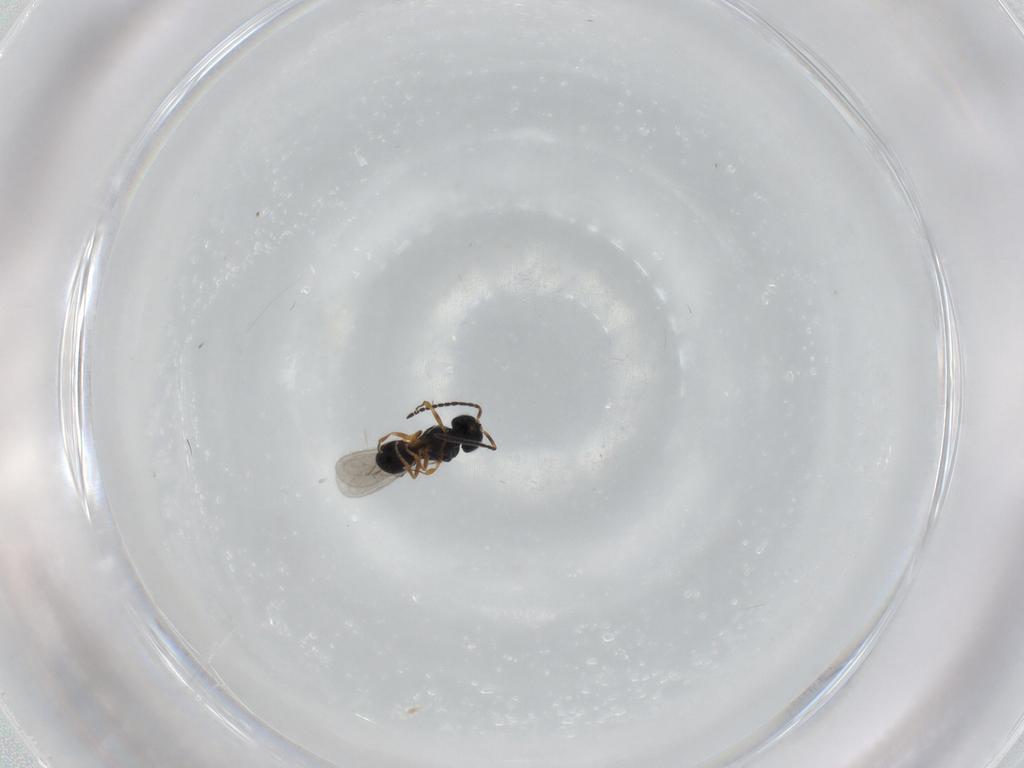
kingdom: Animalia
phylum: Arthropoda
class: Insecta
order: Hymenoptera
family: Scelionidae
